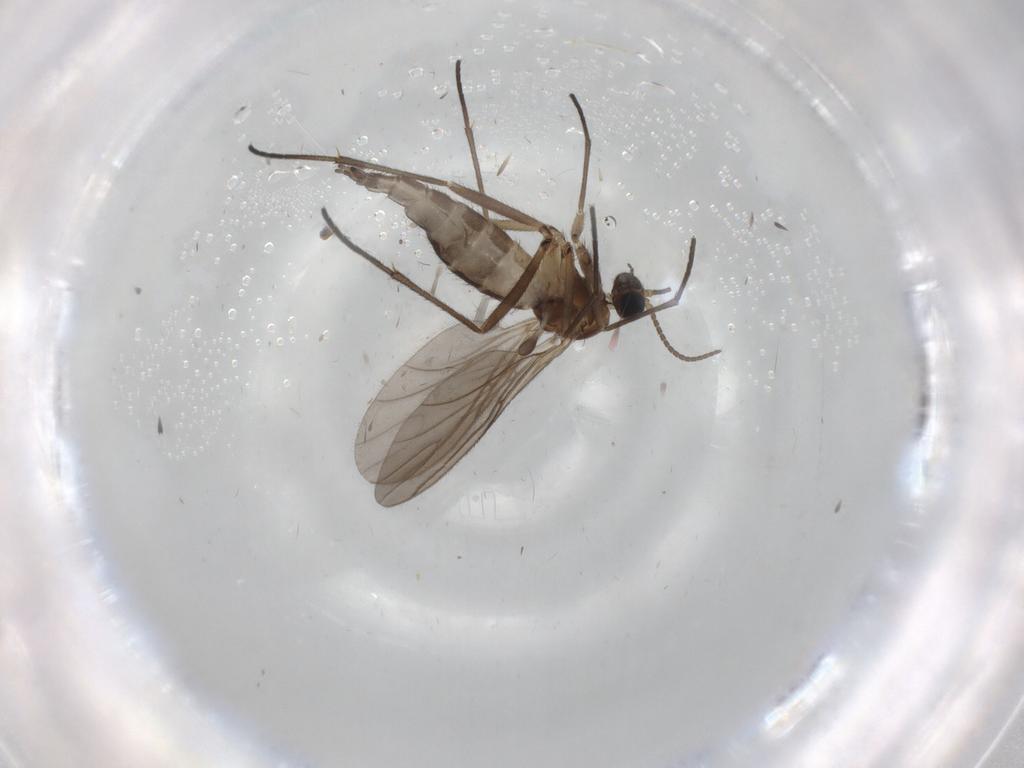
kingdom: Animalia
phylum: Arthropoda
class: Insecta
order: Diptera
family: Sciaridae
